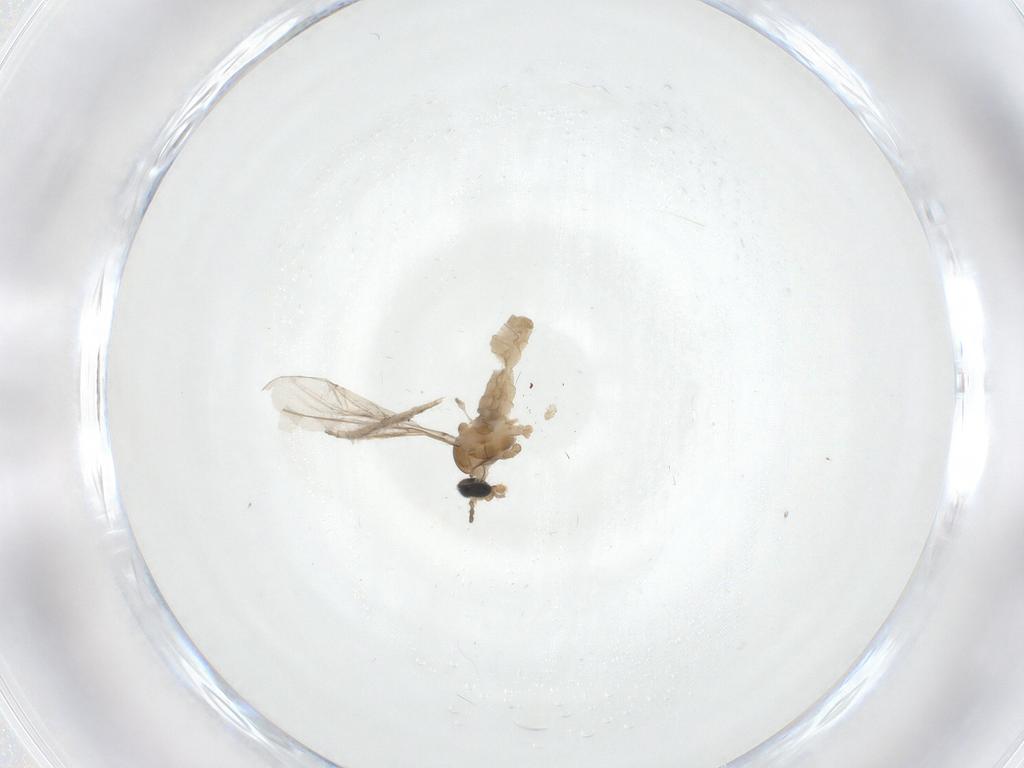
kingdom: Animalia
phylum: Arthropoda
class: Insecta
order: Diptera
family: Cecidomyiidae
